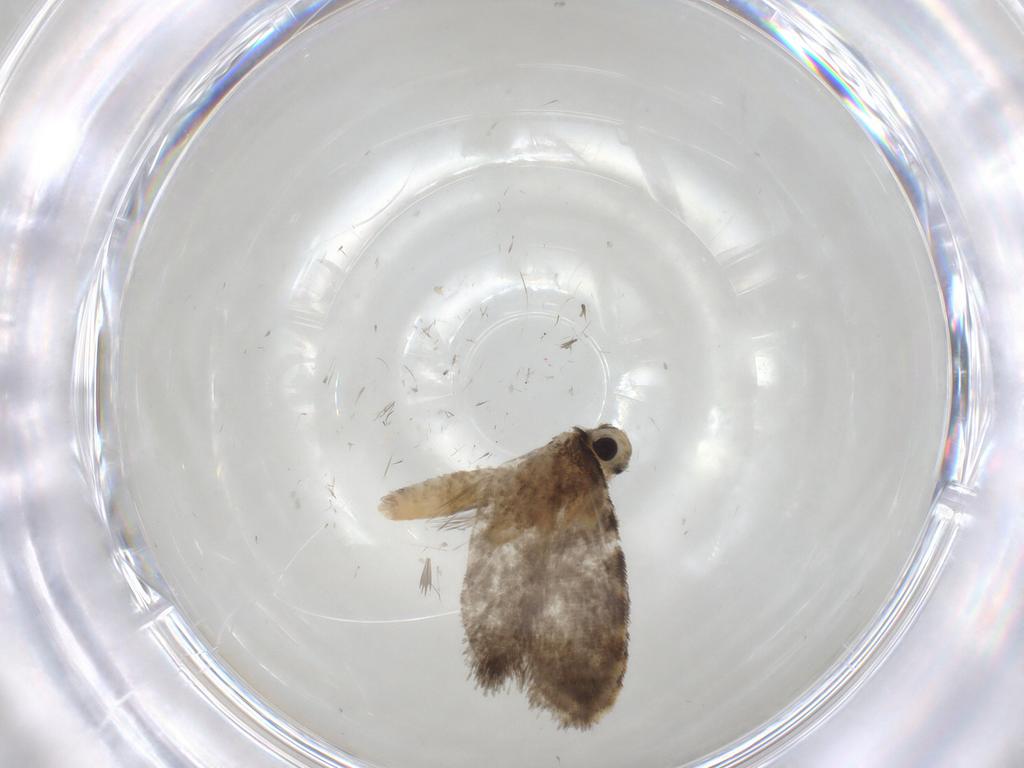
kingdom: Animalia
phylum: Arthropoda
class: Insecta
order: Lepidoptera
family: Psychidae
